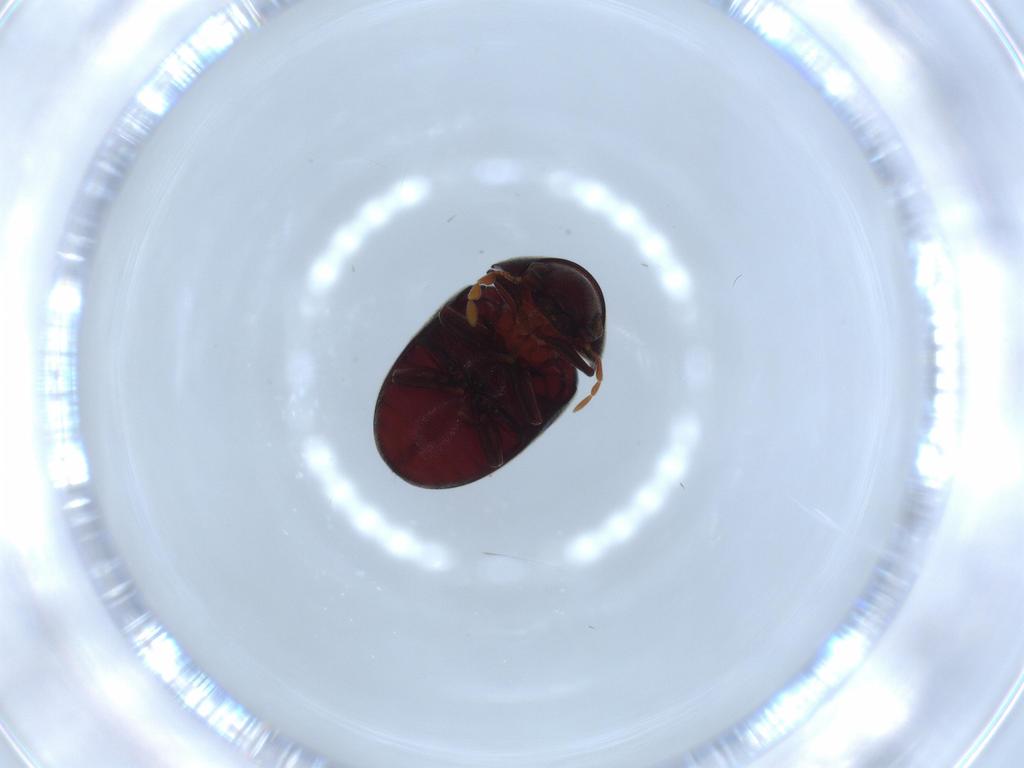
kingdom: Animalia
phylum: Arthropoda
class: Insecta
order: Coleoptera
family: Ptinidae
